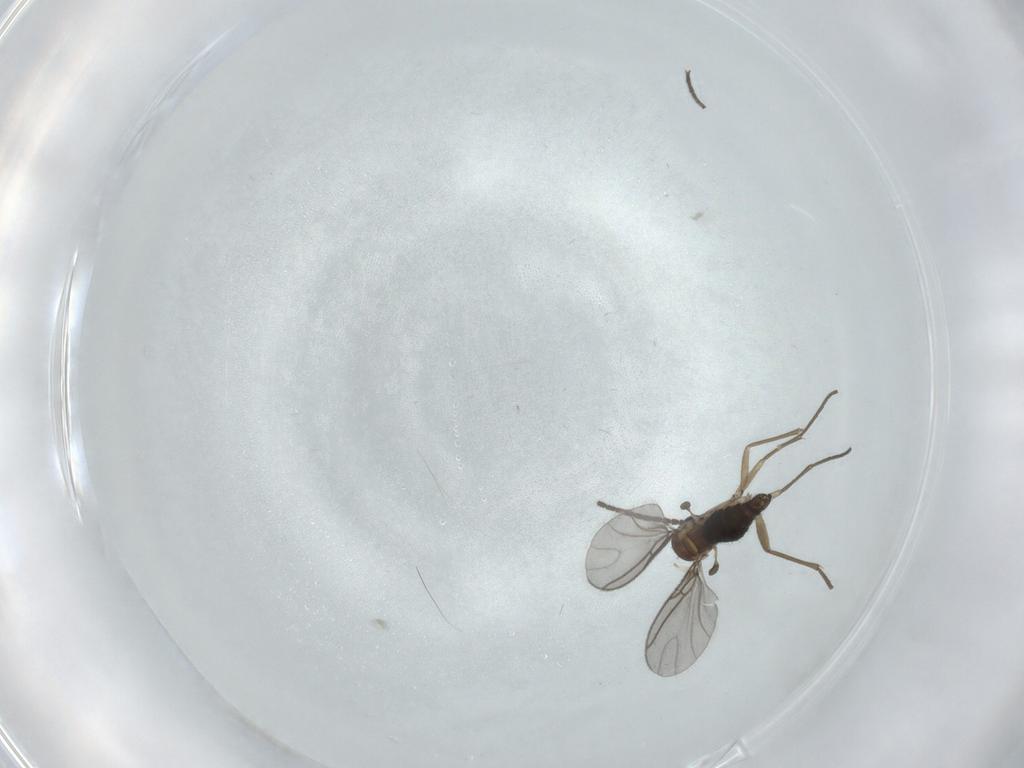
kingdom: Animalia
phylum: Arthropoda
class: Insecta
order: Diptera
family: Sciaridae
